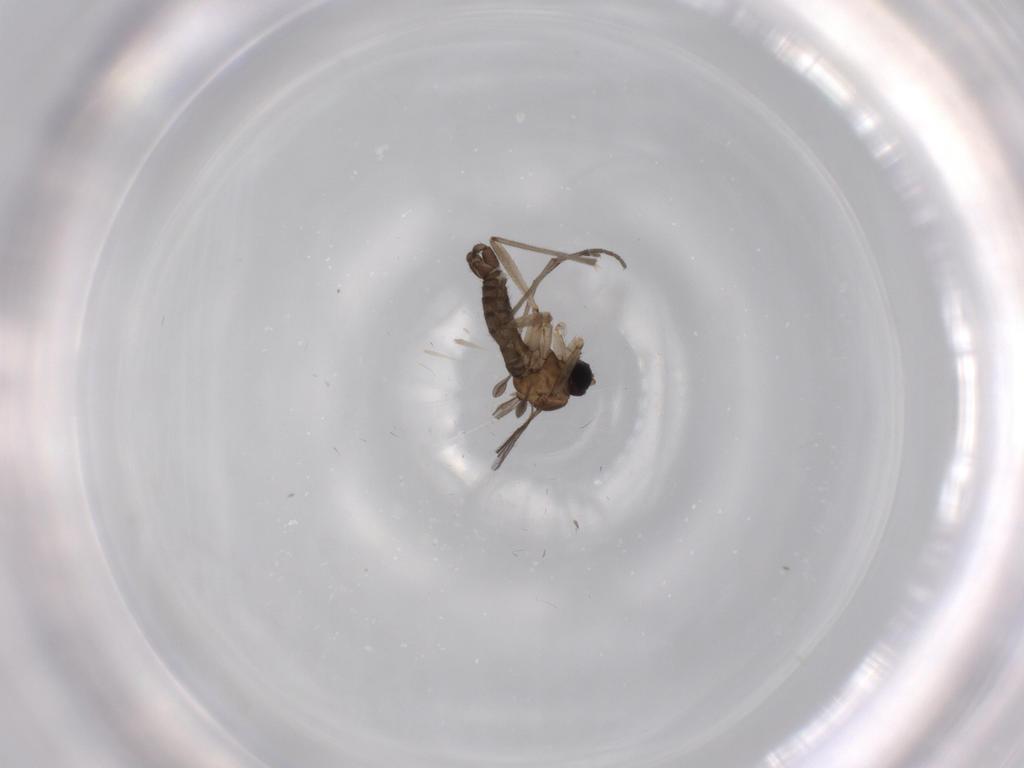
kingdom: Animalia
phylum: Arthropoda
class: Insecta
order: Diptera
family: Sciaridae
